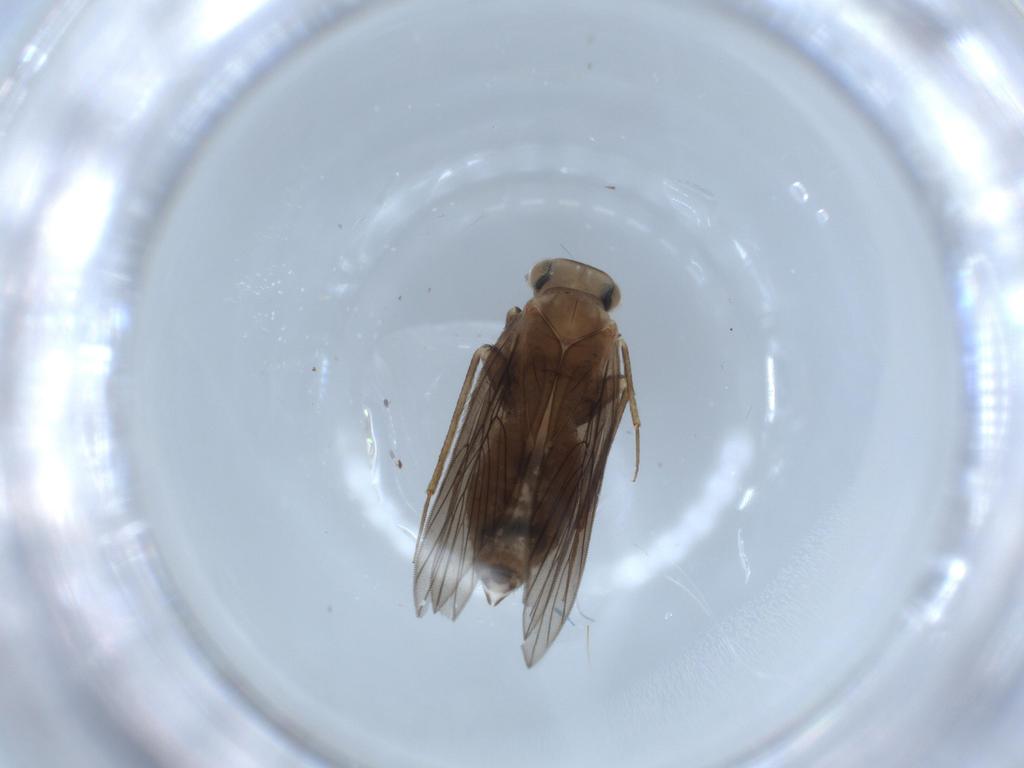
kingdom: Animalia
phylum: Arthropoda
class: Insecta
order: Psocodea
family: Lepidopsocidae
